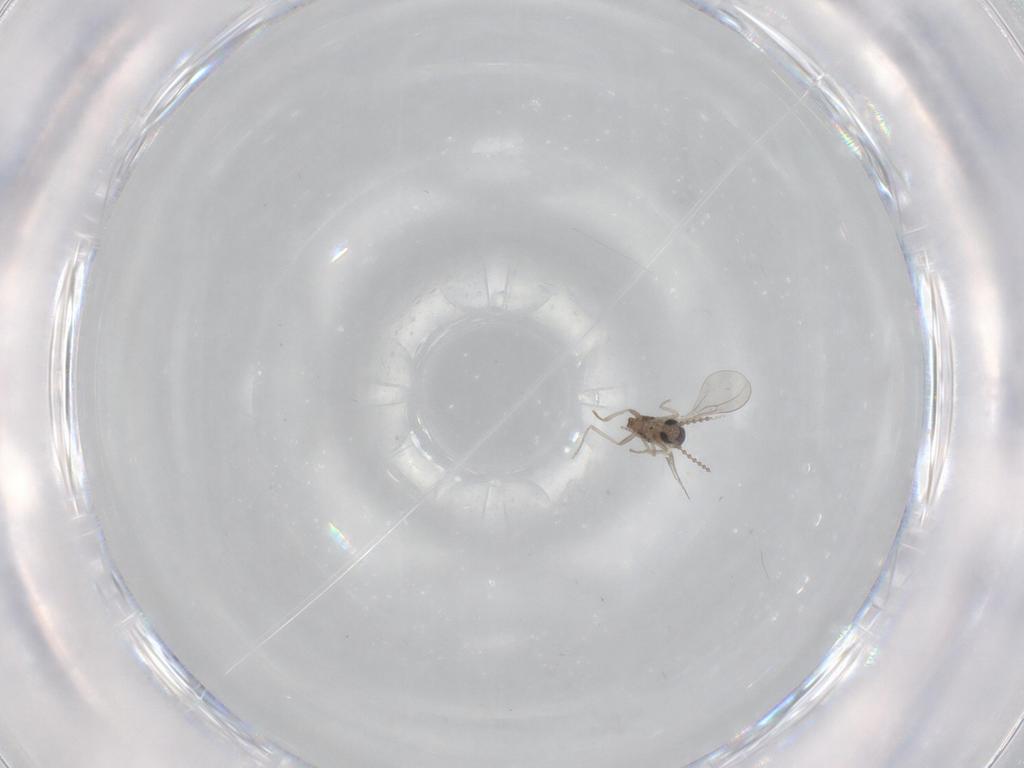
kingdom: Animalia
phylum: Arthropoda
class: Insecta
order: Diptera
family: Cecidomyiidae
